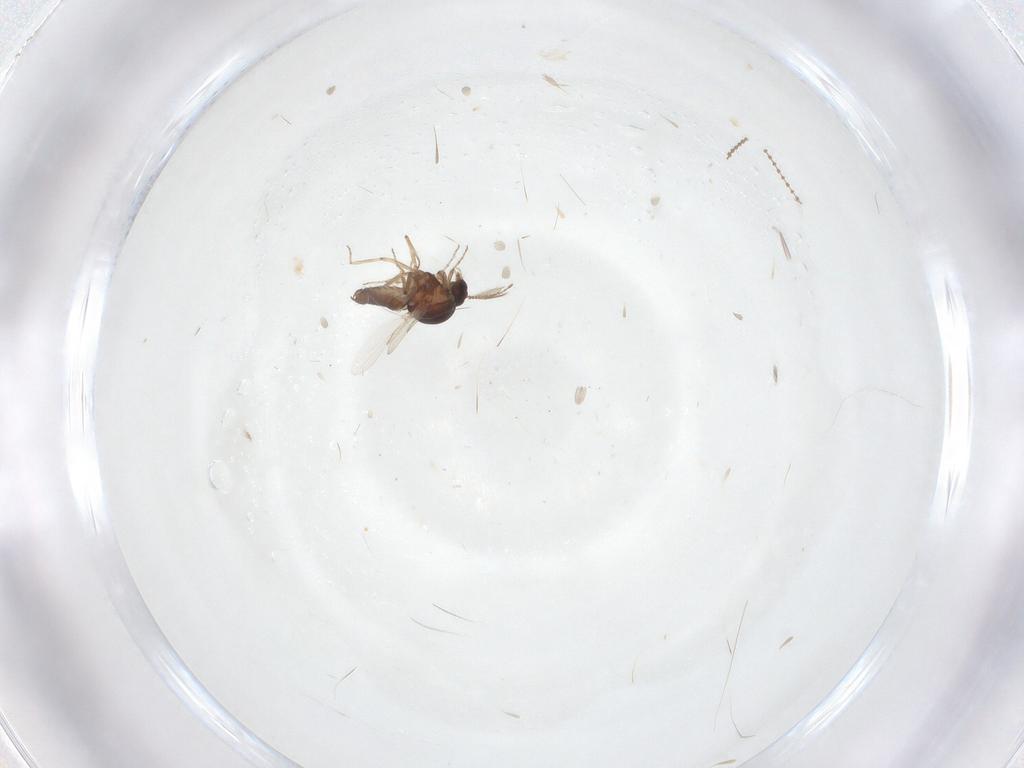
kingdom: Animalia
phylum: Arthropoda
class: Insecta
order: Diptera
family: Ceratopogonidae
